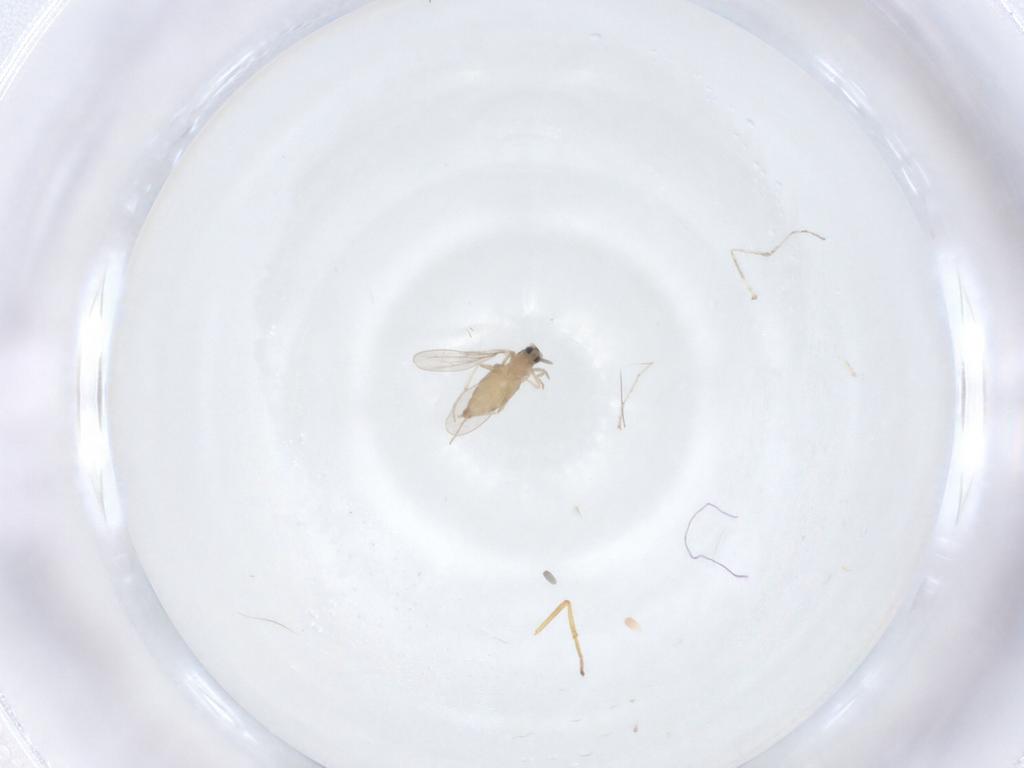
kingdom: Animalia
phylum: Arthropoda
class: Insecta
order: Diptera
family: Cecidomyiidae
